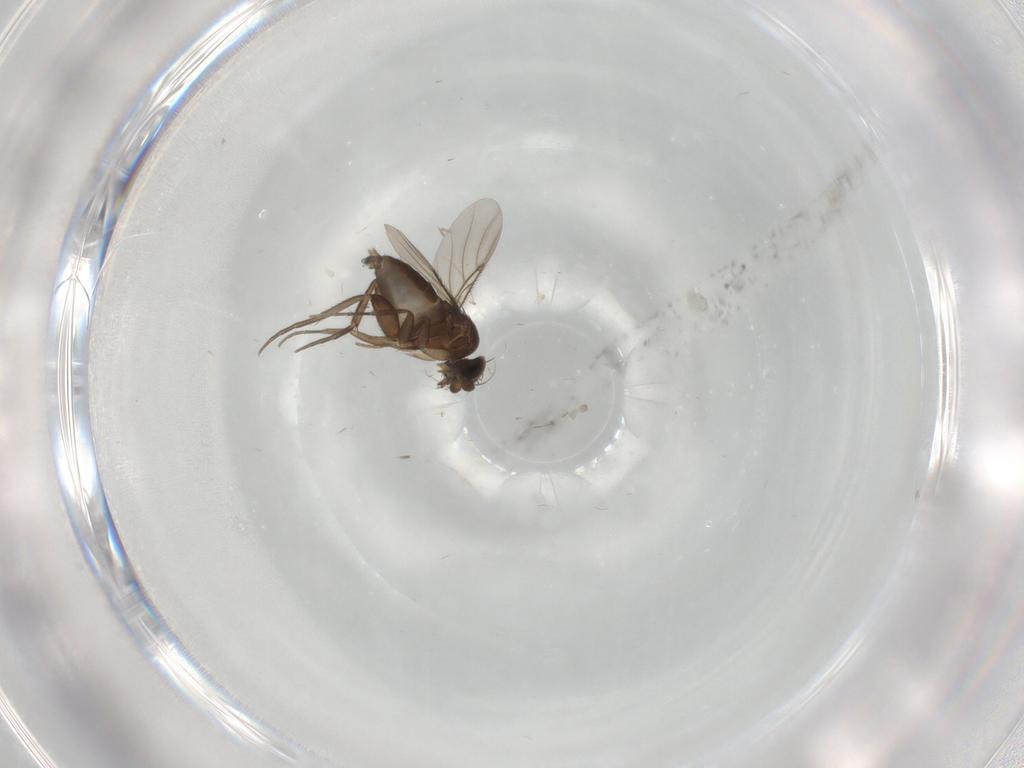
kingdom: Animalia
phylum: Arthropoda
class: Insecta
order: Diptera
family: Phoridae
